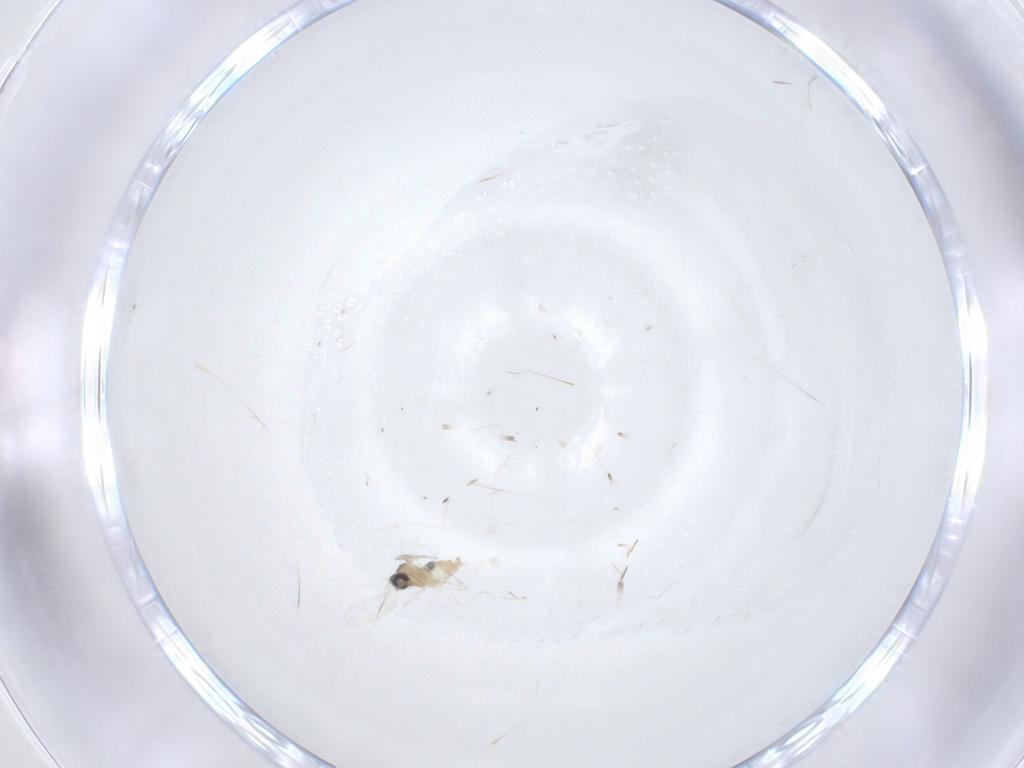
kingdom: Animalia
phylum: Arthropoda
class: Insecta
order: Diptera
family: Cecidomyiidae
